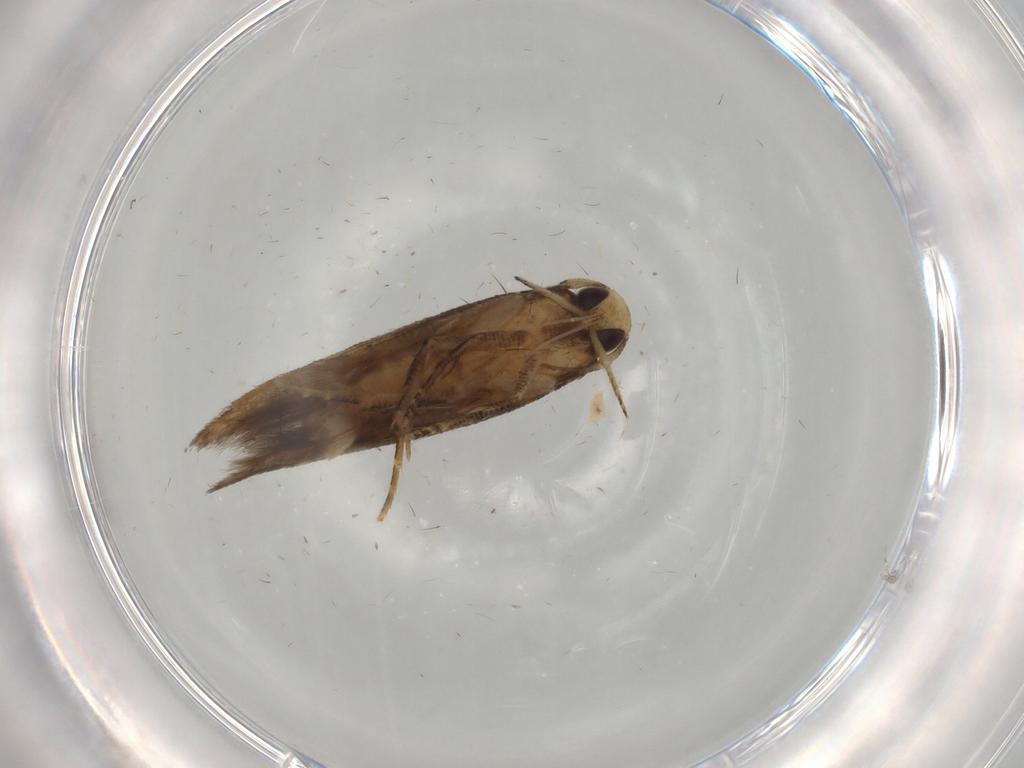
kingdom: Animalia
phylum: Arthropoda
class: Insecta
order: Lepidoptera
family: Cosmopterigidae
